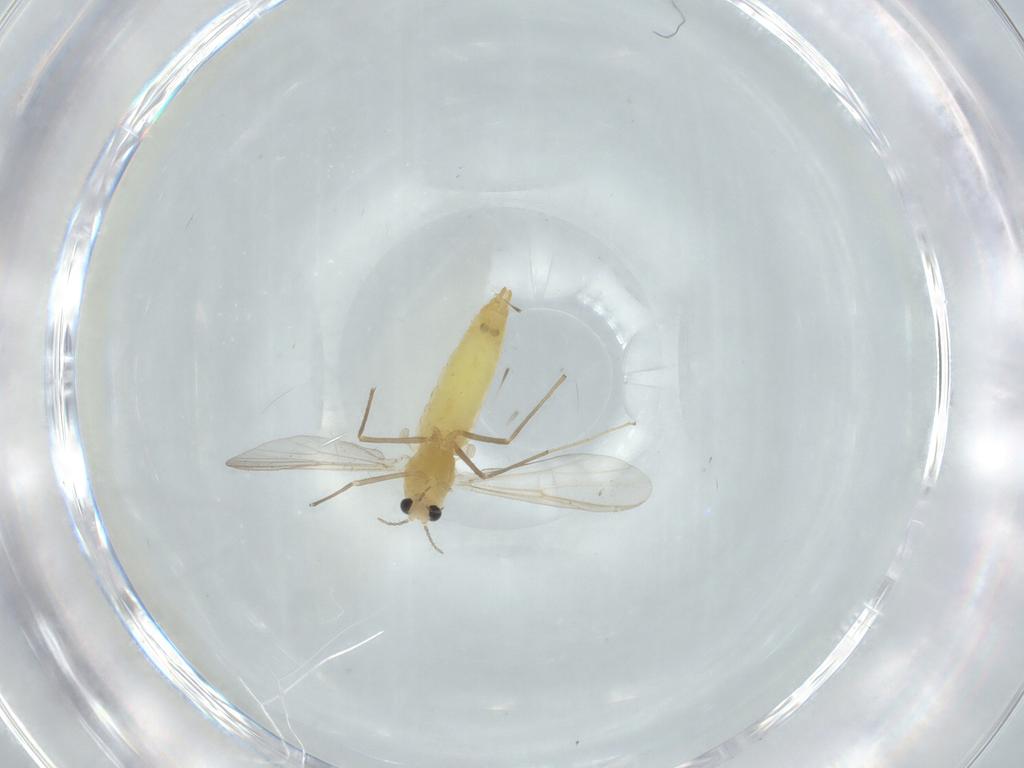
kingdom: Animalia
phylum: Arthropoda
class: Insecta
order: Diptera
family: Chironomidae
